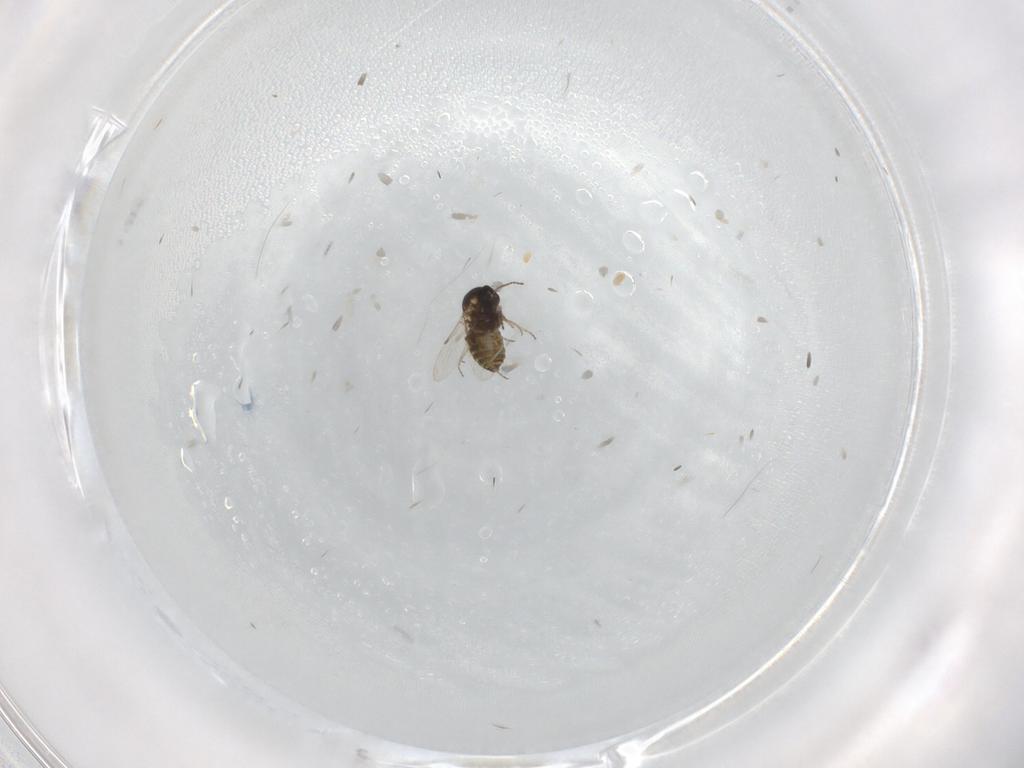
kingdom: Animalia
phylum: Arthropoda
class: Insecta
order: Diptera
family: Ceratopogonidae
